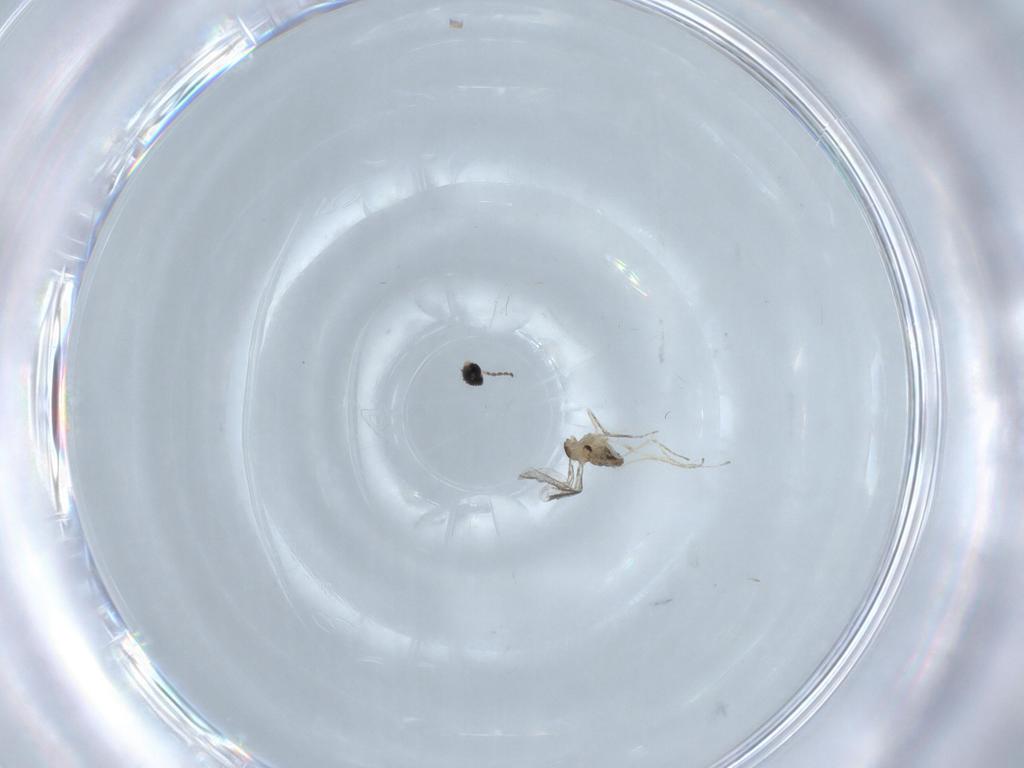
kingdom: Animalia
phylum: Arthropoda
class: Insecta
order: Diptera
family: Cecidomyiidae
